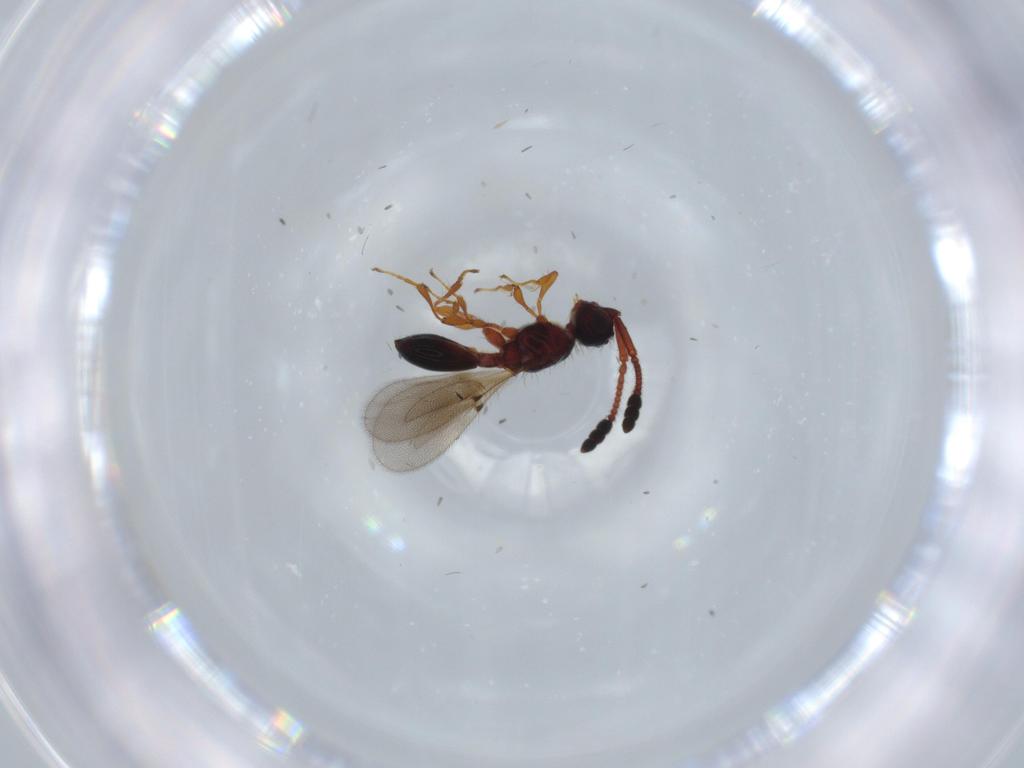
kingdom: Animalia
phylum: Arthropoda
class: Insecta
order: Hymenoptera
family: Diapriidae
